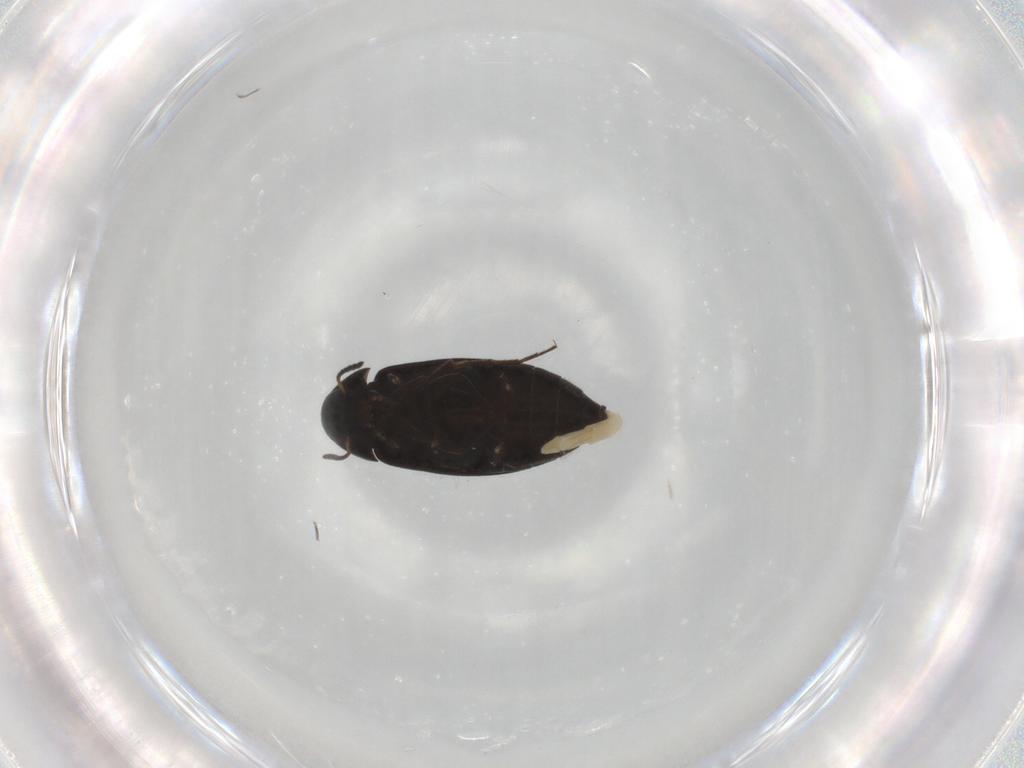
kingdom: Animalia
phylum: Arthropoda
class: Insecta
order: Coleoptera
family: Scraptiidae
